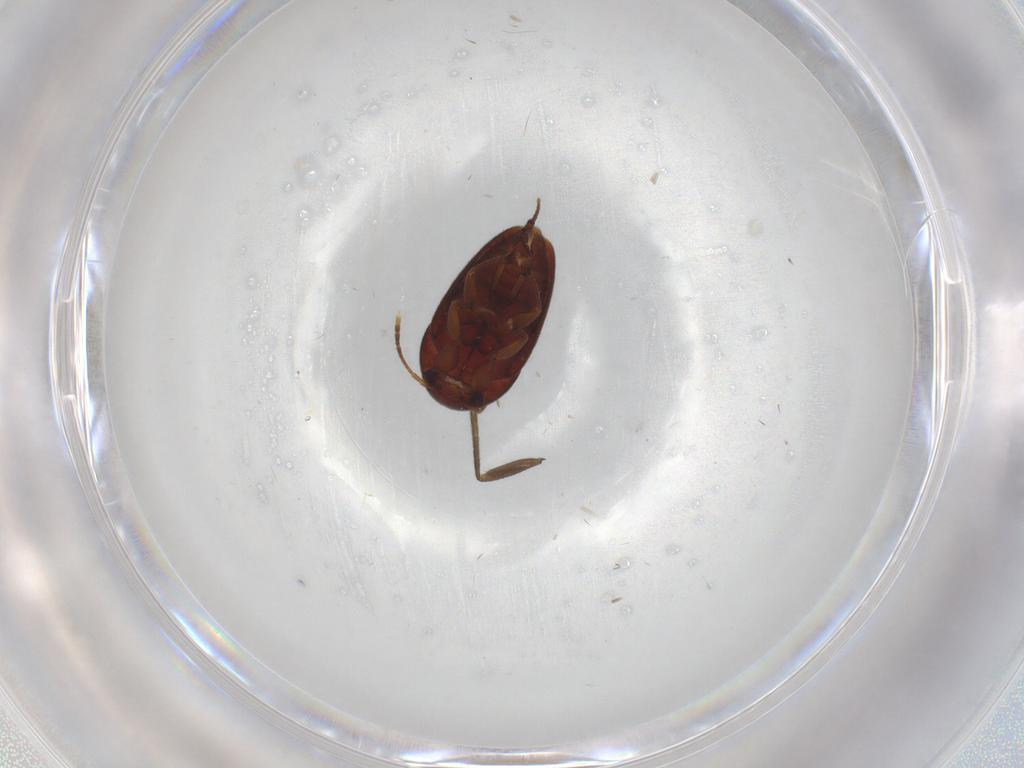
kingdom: Animalia
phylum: Arthropoda
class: Insecta
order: Coleoptera
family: Leiodidae
